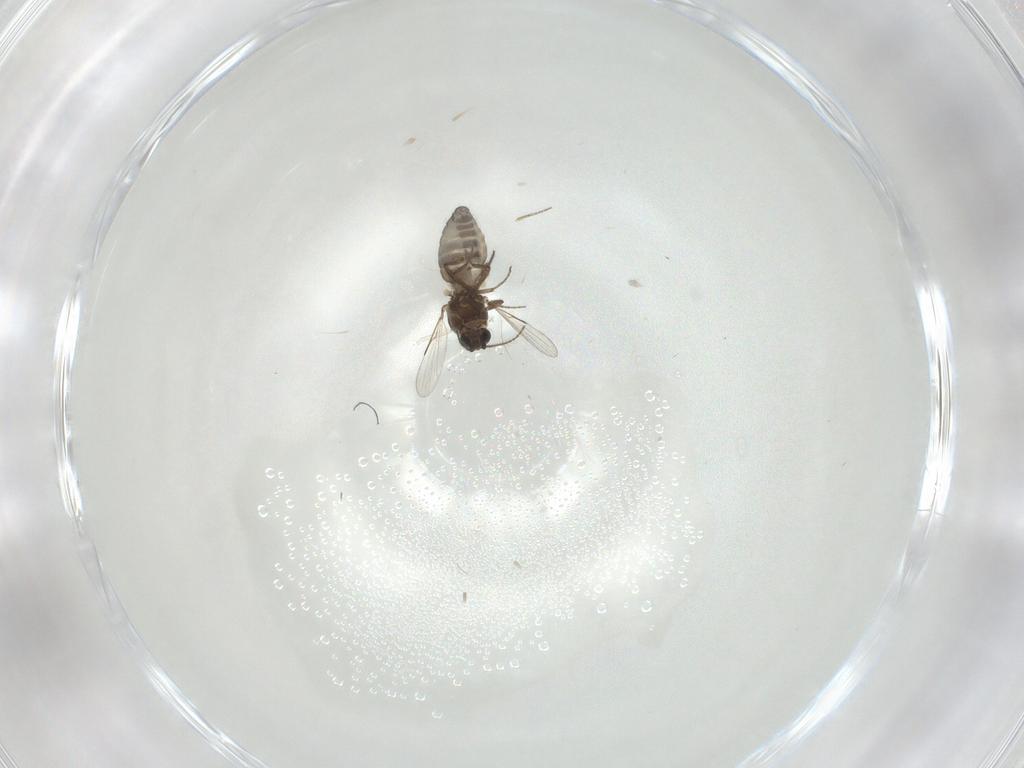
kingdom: Animalia
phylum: Arthropoda
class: Insecta
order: Diptera
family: Ceratopogonidae
